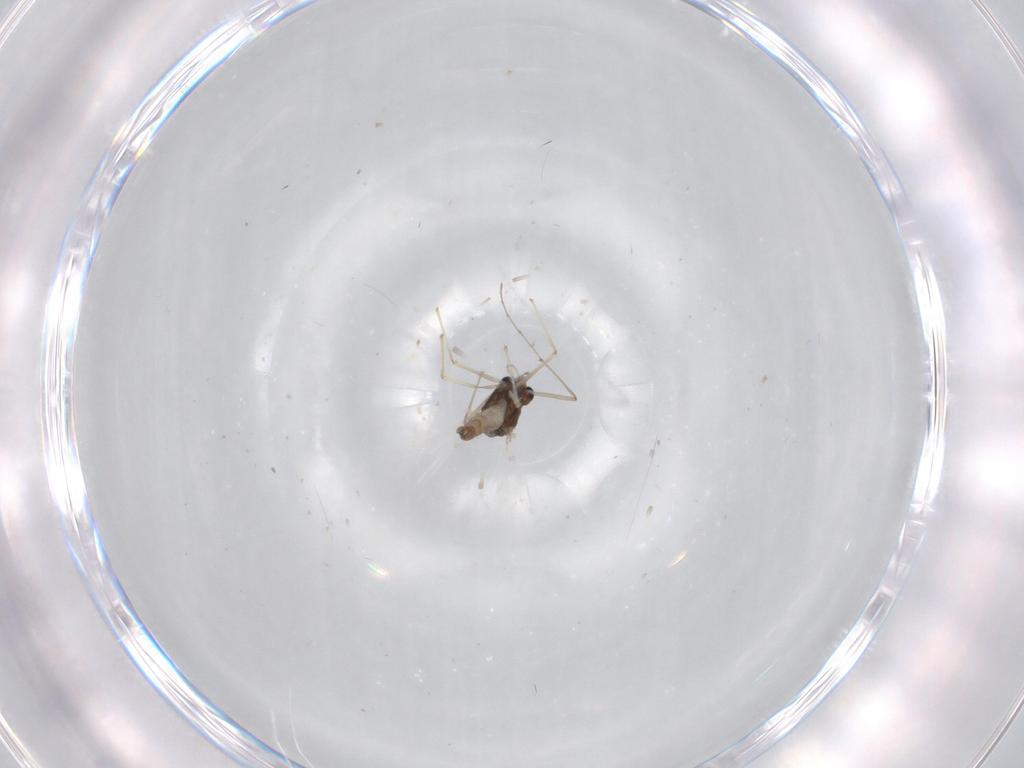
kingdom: Animalia
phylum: Arthropoda
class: Insecta
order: Diptera
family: Chironomidae
